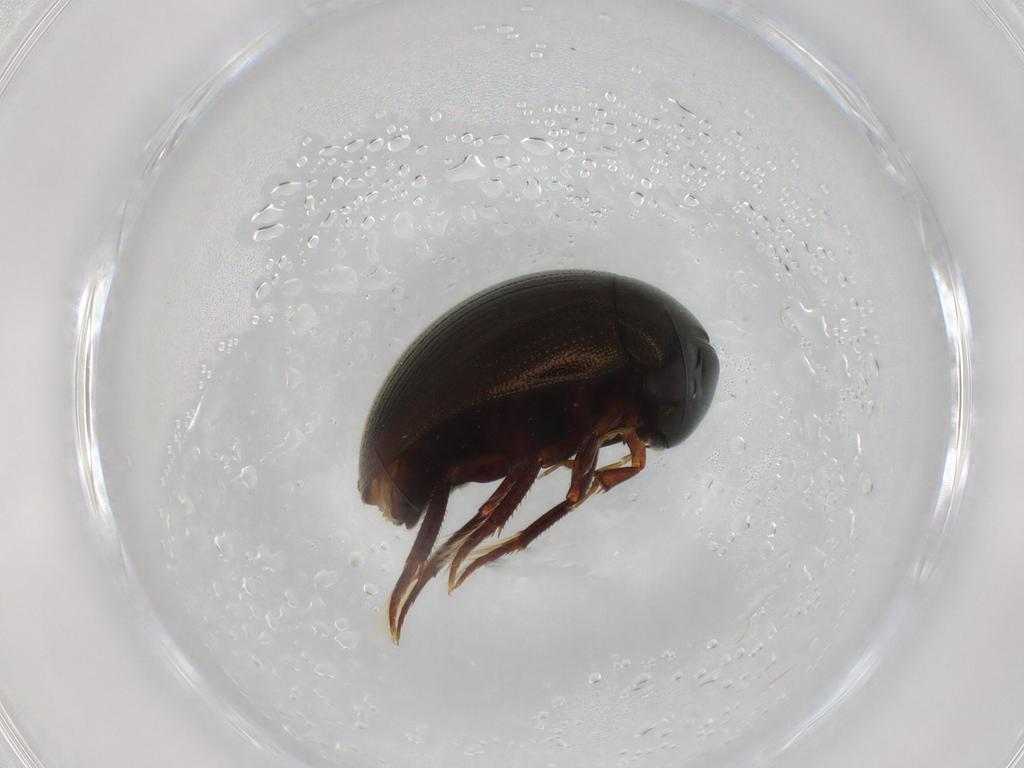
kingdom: Animalia
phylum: Arthropoda
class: Insecta
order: Coleoptera
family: Hydrophilidae
